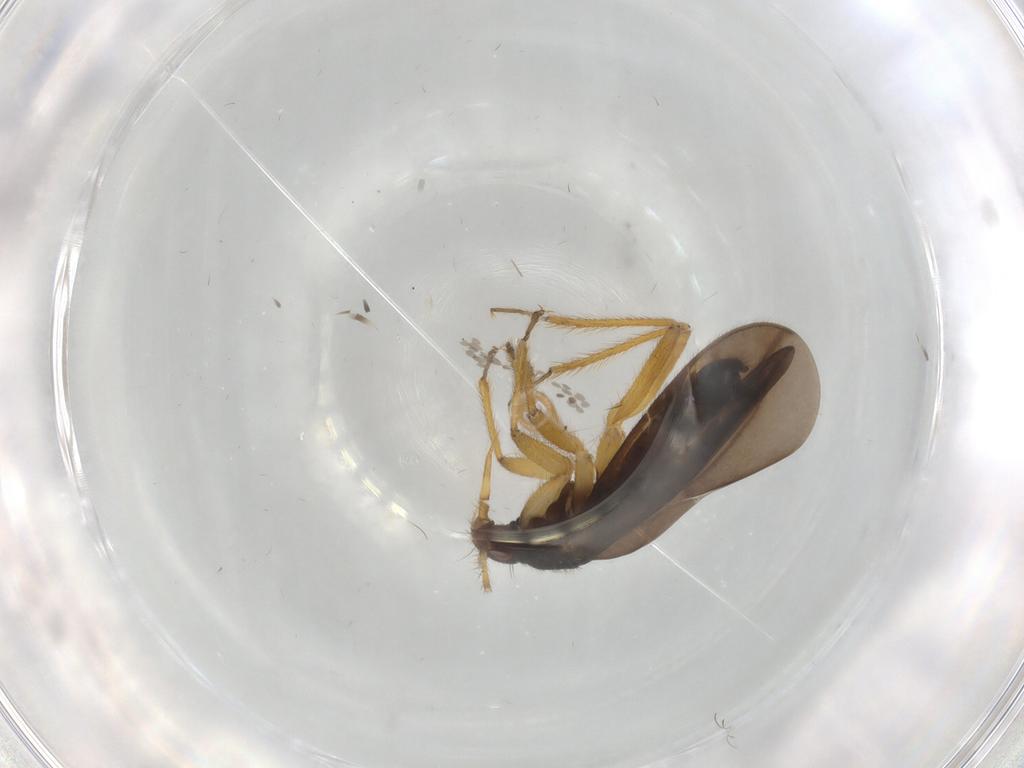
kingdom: Animalia
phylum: Arthropoda
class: Insecta
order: Hemiptera
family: Ceratocombidae
